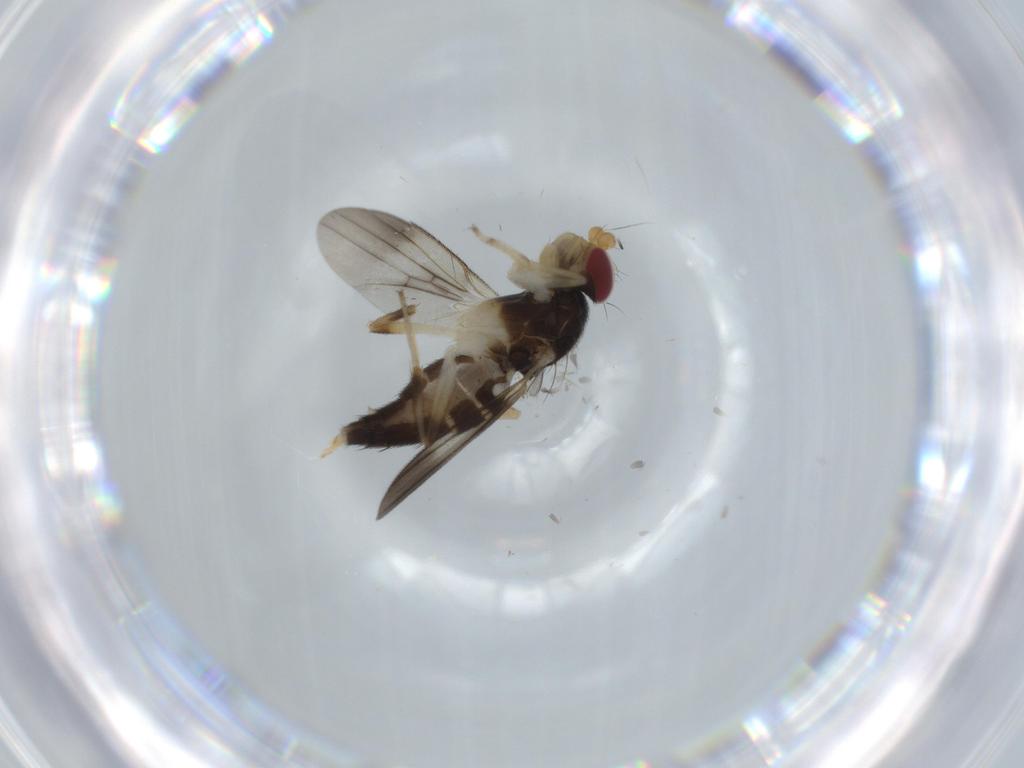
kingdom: Animalia
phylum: Arthropoda
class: Insecta
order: Diptera
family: Clusiidae
